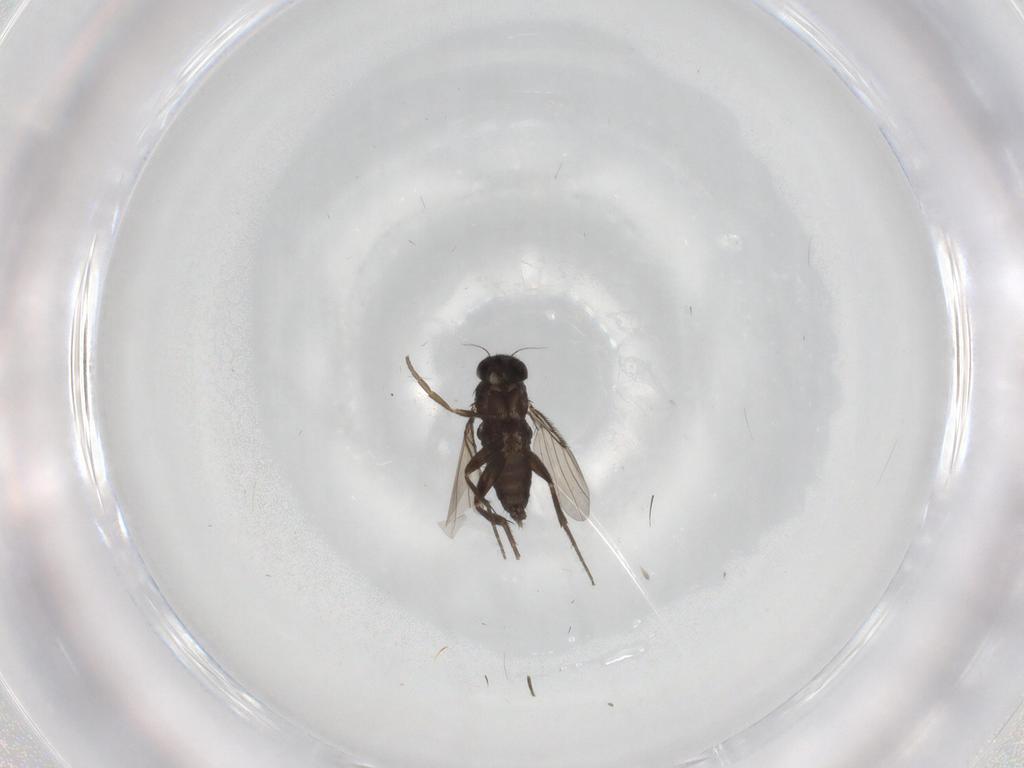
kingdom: Animalia
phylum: Arthropoda
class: Insecta
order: Diptera
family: Phoridae
